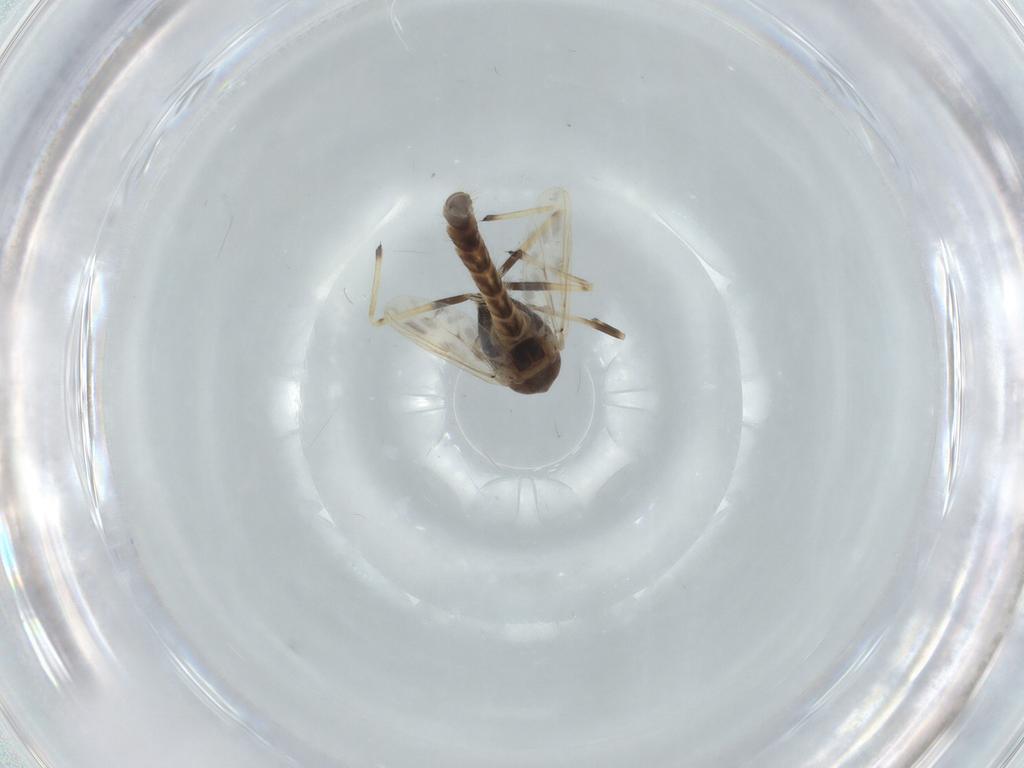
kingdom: Animalia
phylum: Arthropoda
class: Insecta
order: Diptera
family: Chironomidae
